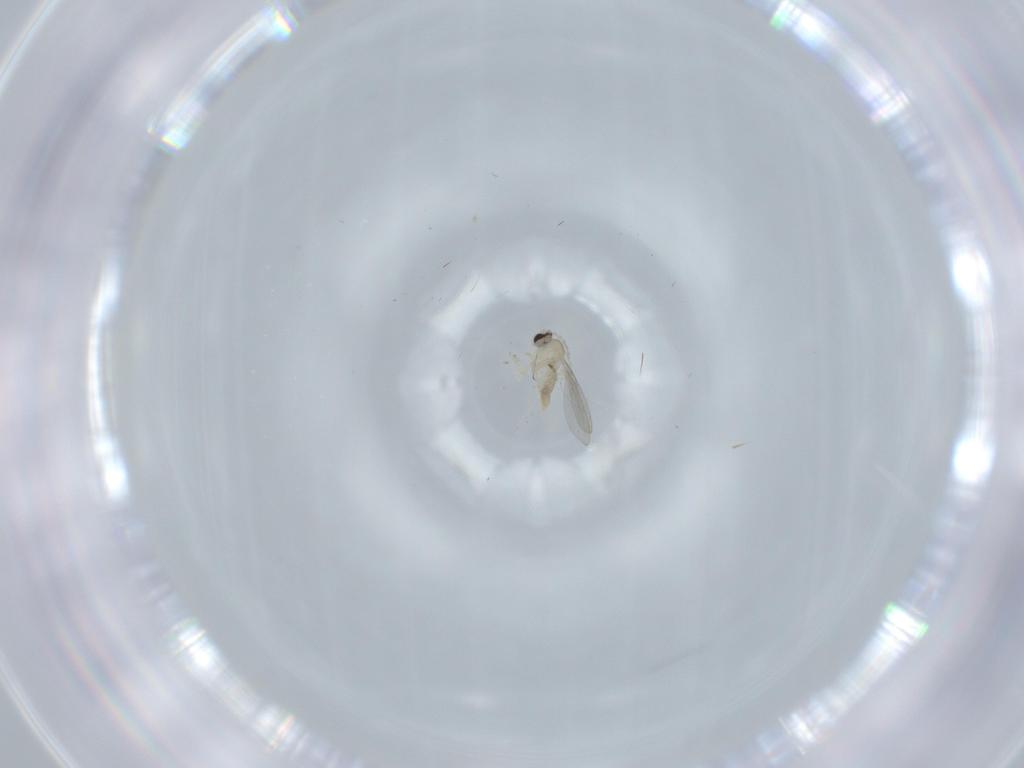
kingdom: Animalia
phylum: Arthropoda
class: Insecta
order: Diptera
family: Cecidomyiidae
